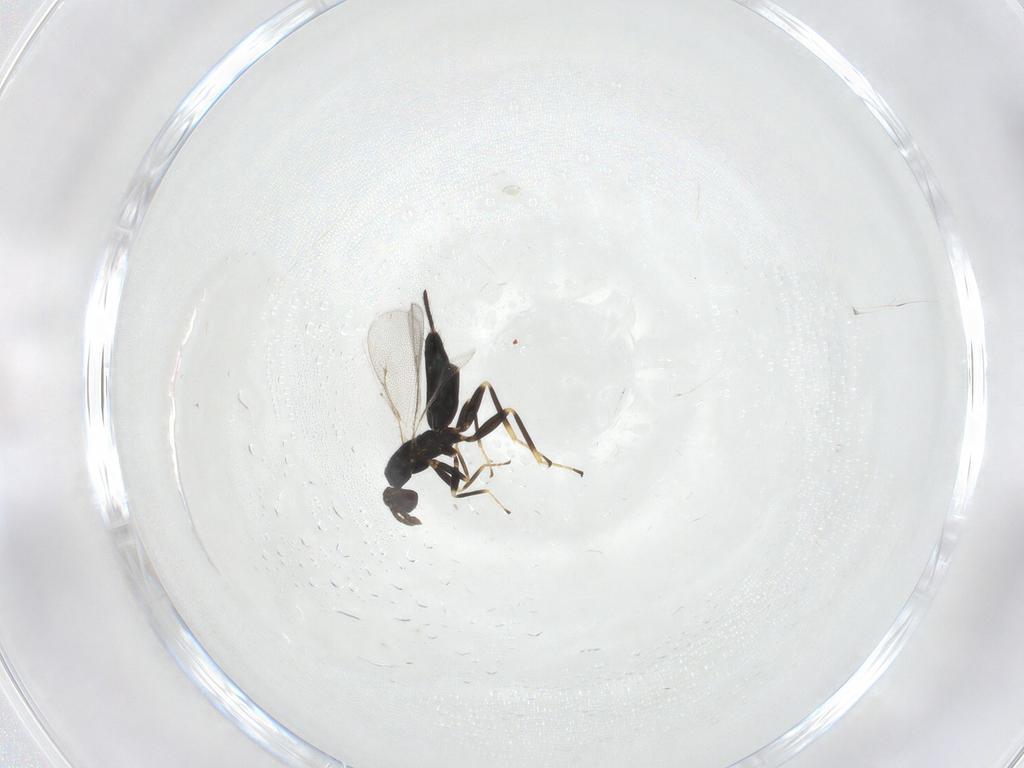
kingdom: Animalia
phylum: Arthropoda
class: Insecta
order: Hymenoptera
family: Eulophidae
